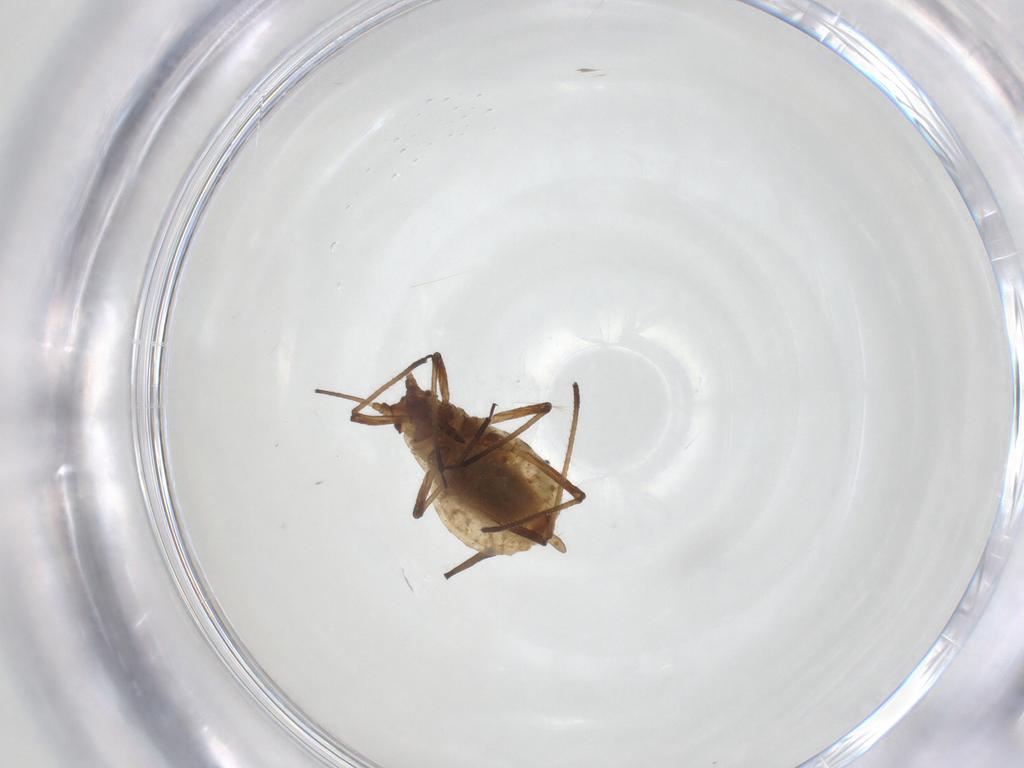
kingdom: Animalia
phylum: Arthropoda
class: Insecta
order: Hemiptera
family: Aphididae
